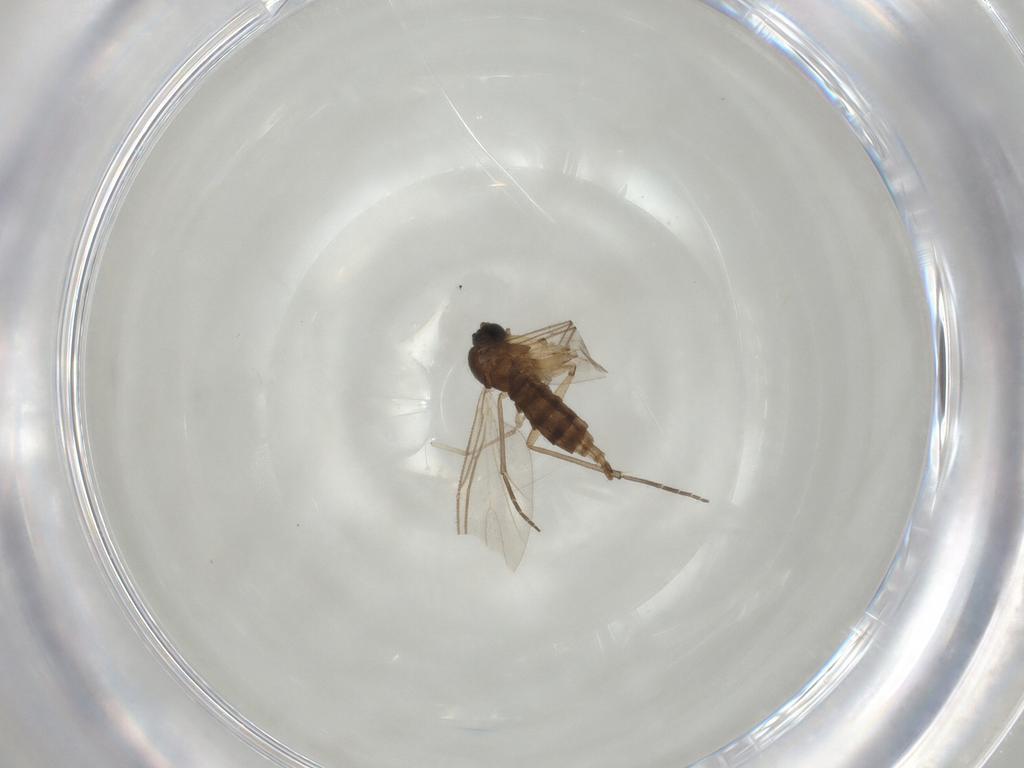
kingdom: Animalia
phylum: Arthropoda
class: Insecta
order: Diptera
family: Sciaridae
